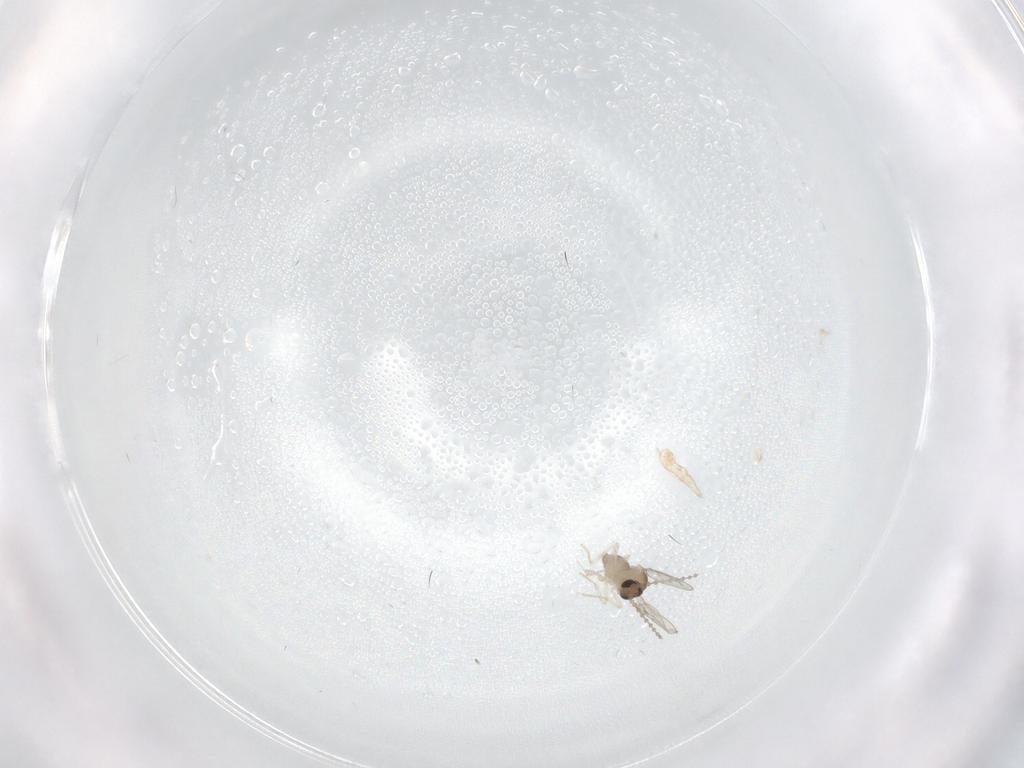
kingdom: Animalia
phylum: Arthropoda
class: Insecta
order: Diptera
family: Cecidomyiidae
